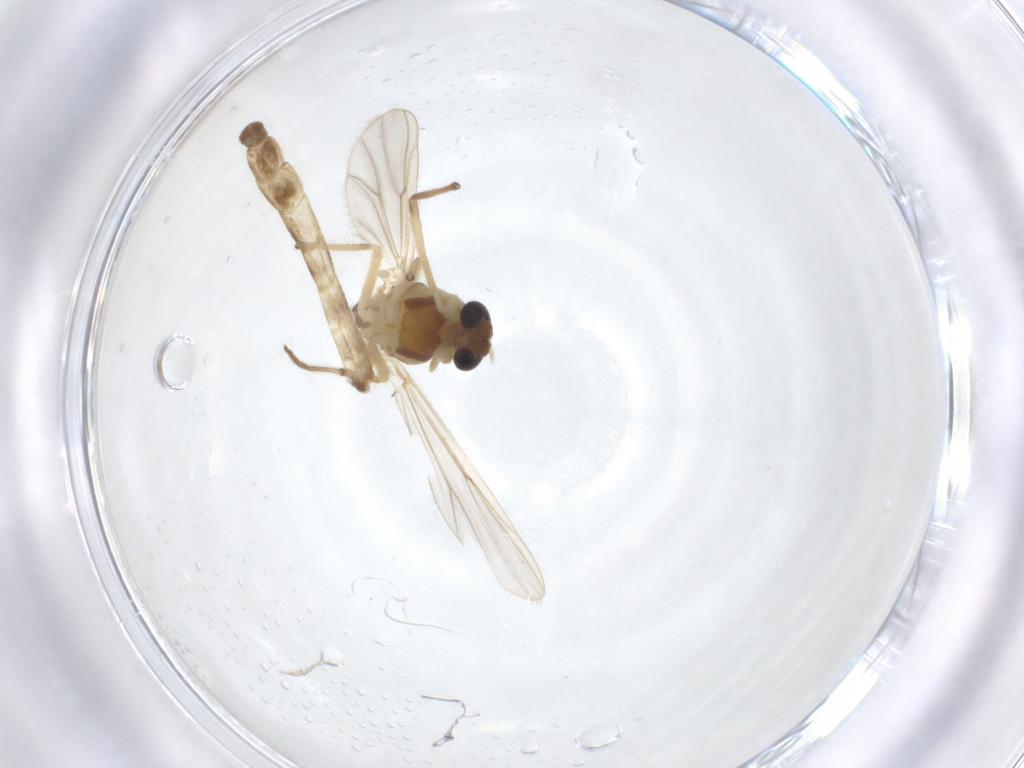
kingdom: Animalia
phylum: Arthropoda
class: Insecta
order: Diptera
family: Chironomidae
